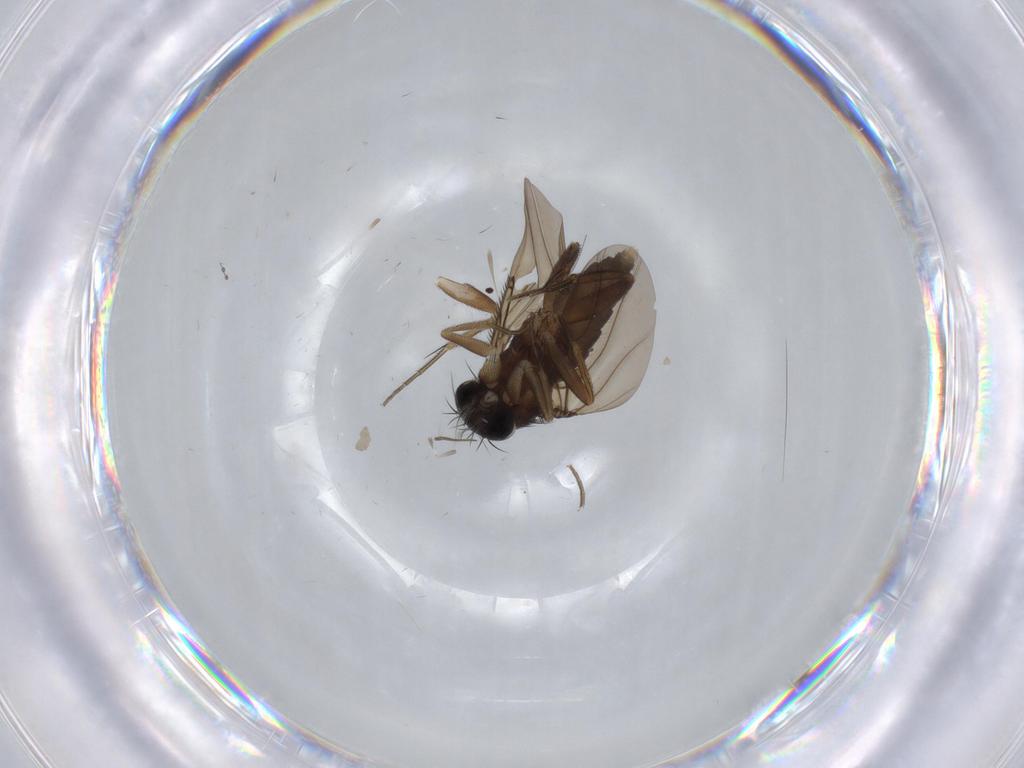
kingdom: Animalia
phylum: Arthropoda
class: Insecta
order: Diptera
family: Phoridae
